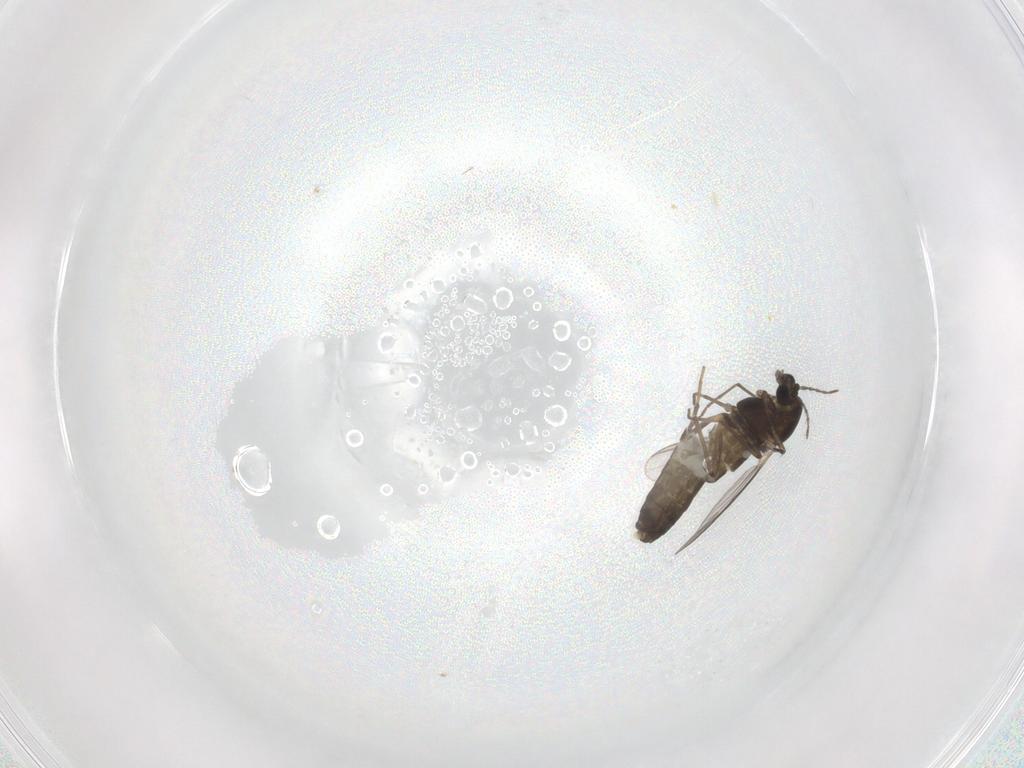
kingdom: Animalia
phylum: Arthropoda
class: Insecta
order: Diptera
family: Chironomidae
